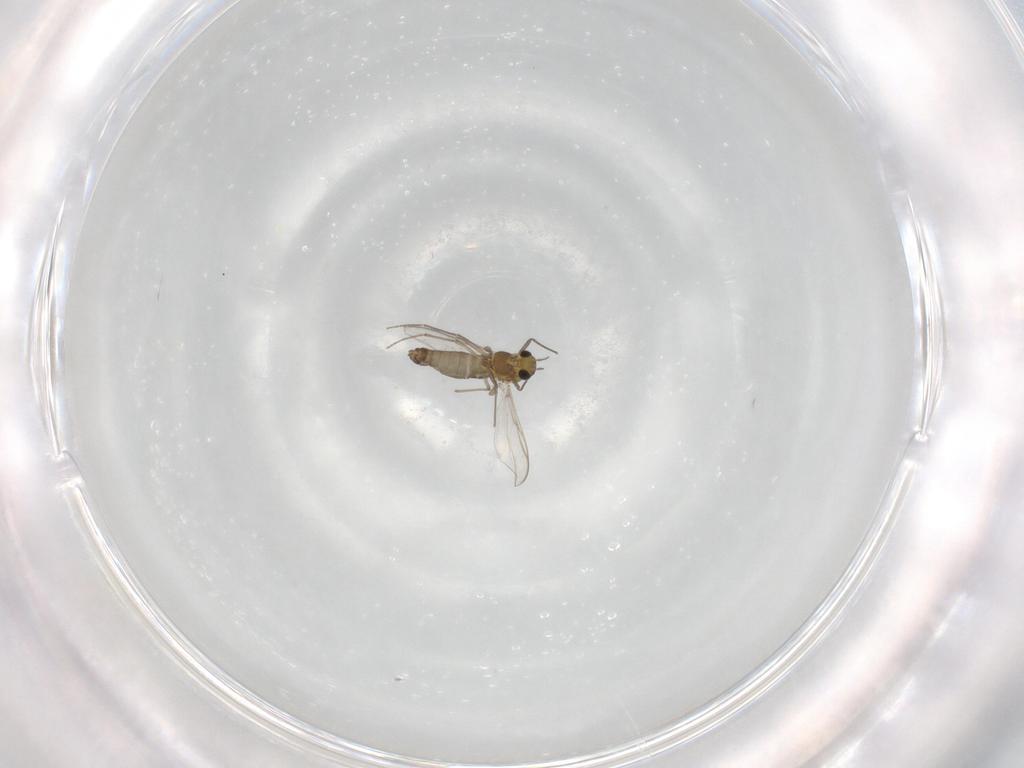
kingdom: Animalia
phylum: Arthropoda
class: Insecta
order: Diptera
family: Chironomidae
